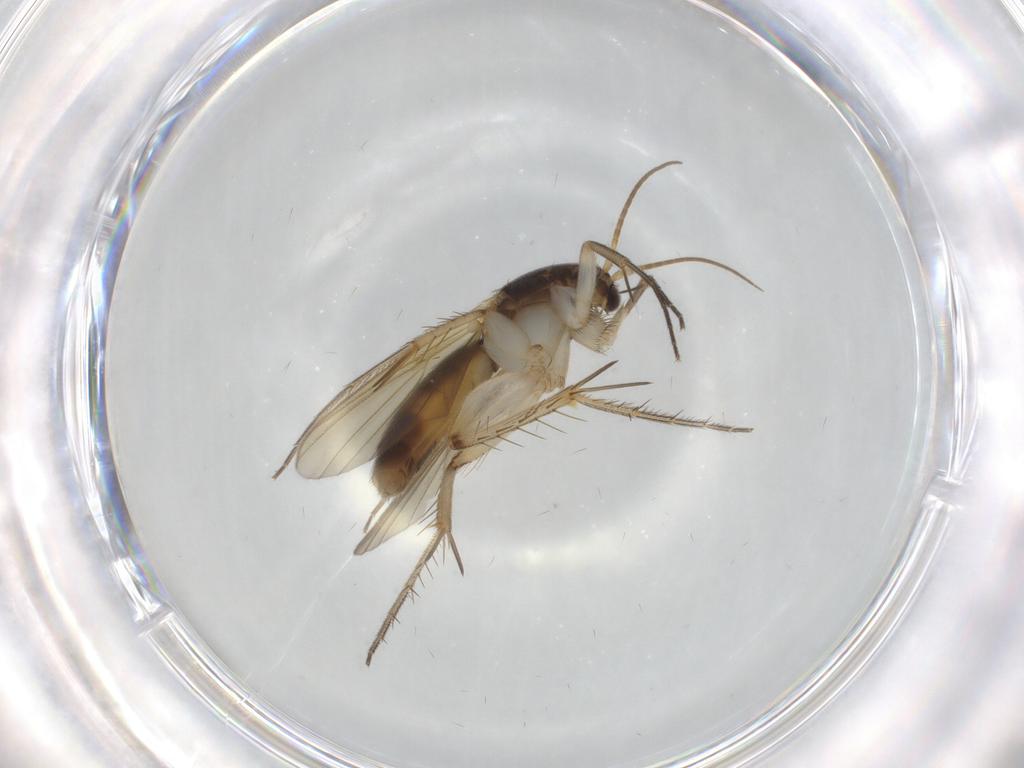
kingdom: Animalia
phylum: Arthropoda
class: Insecta
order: Diptera
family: Mycetophilidae
